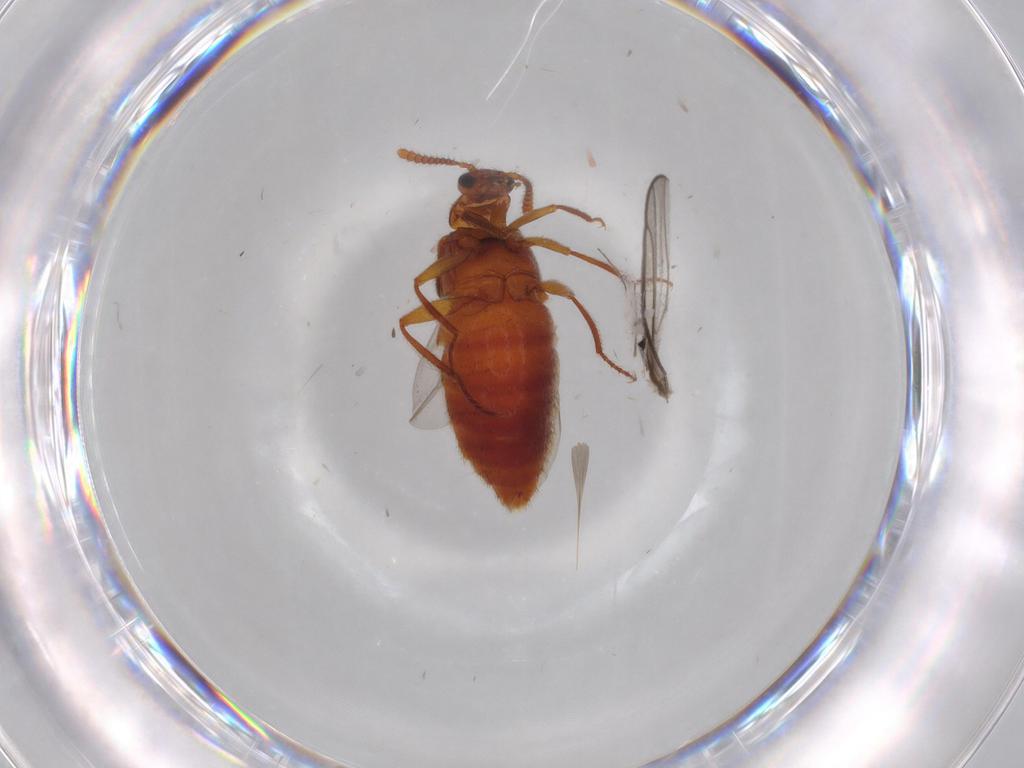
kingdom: Animalia
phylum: Arthropoda
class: Insecta
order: Coleoptera
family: Staphylinidae
